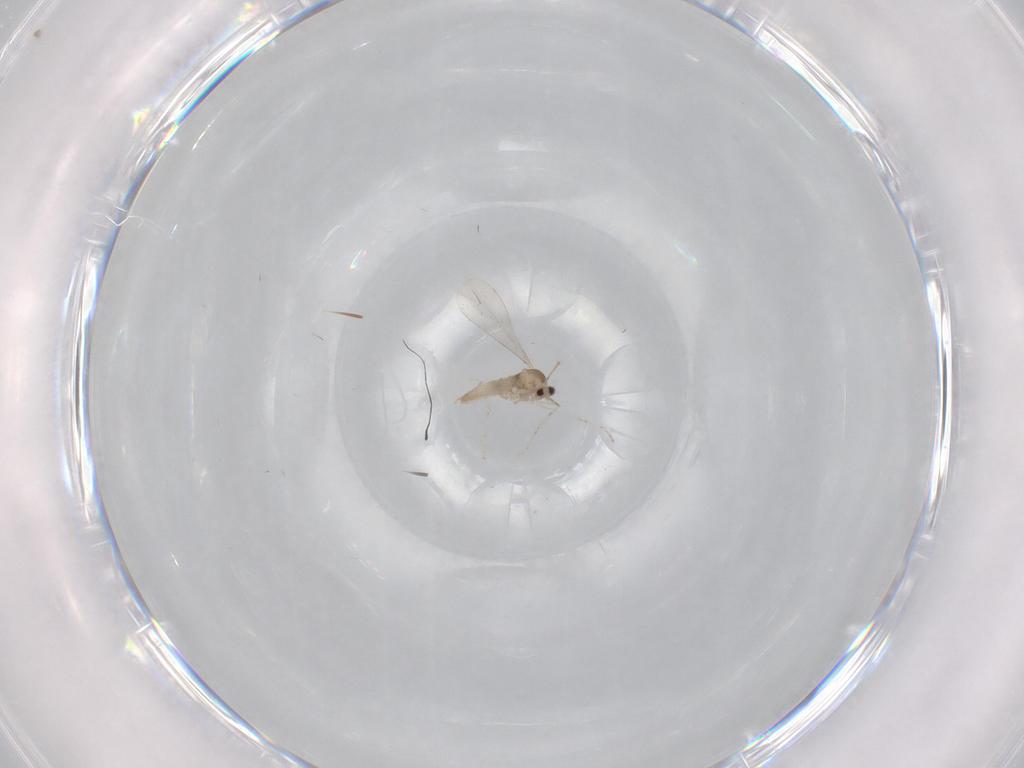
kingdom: Animalia
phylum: Arthropoda
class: Insecta
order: Diptera
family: Cecidomyiidae
